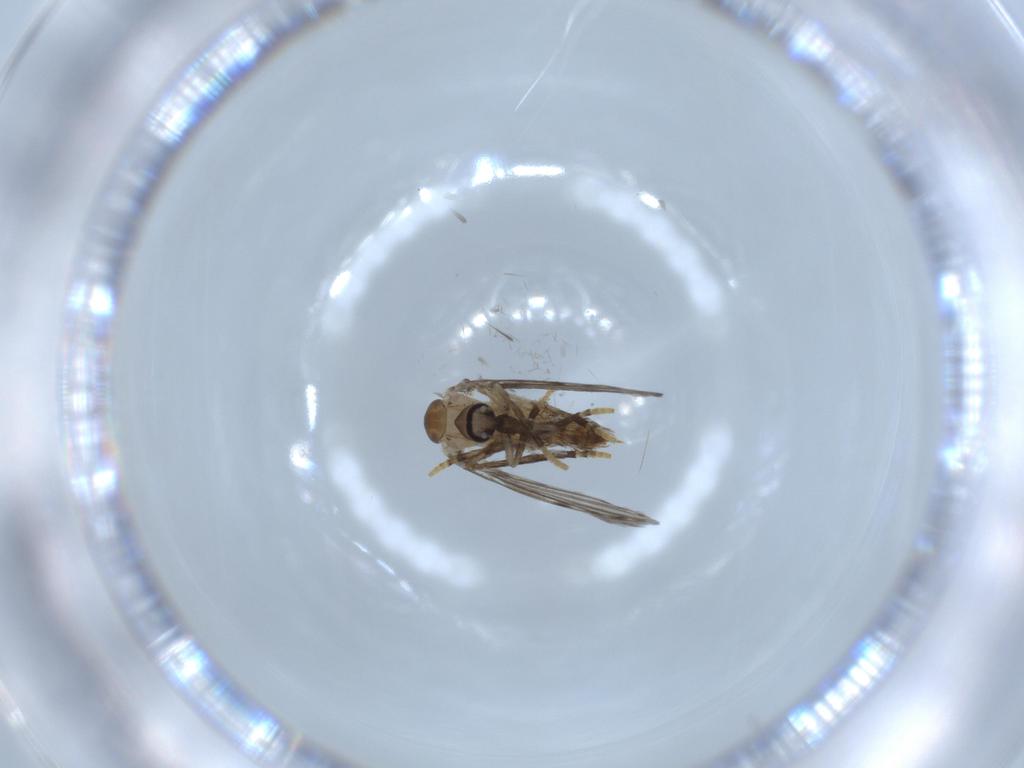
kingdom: Animalia
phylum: Arthropoda
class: Insecta
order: Diptera
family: Psychodidae
